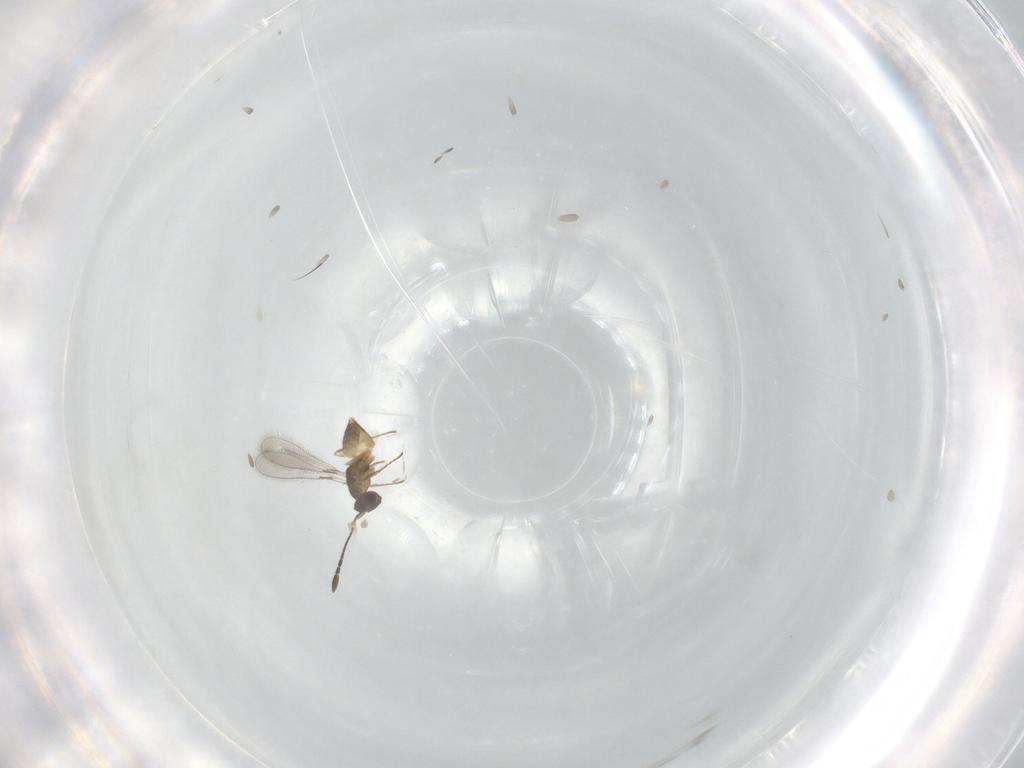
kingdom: Animalia
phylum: Arthropoda
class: Insecta
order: Hymenoptera
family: Mymaridae
